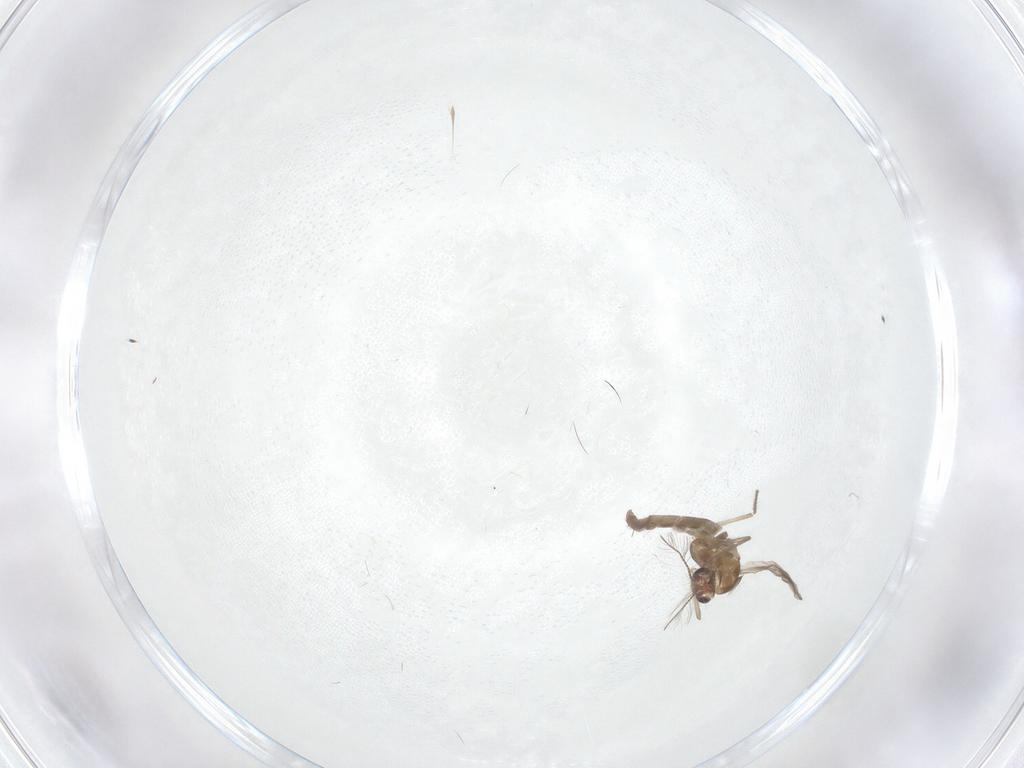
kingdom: Animalia
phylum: Arthropoda
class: Insecta
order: Diptera
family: Chironomidae
